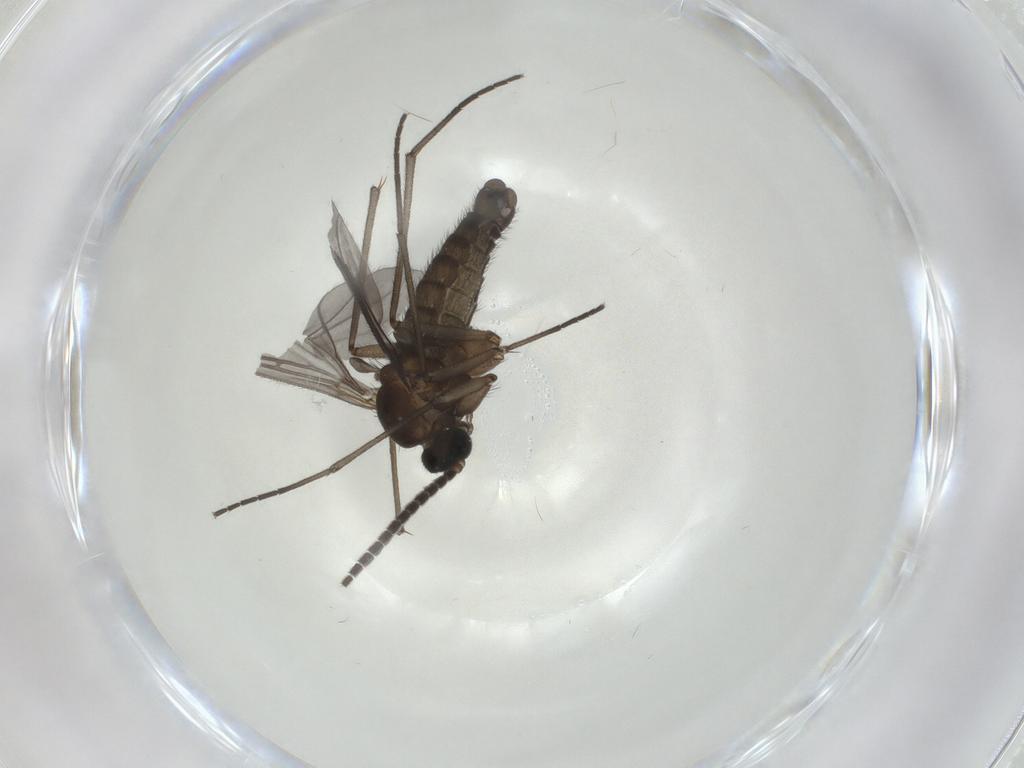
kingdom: Animalia
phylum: Arthropoda
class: Insecta
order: Diptera
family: Sciaridae
